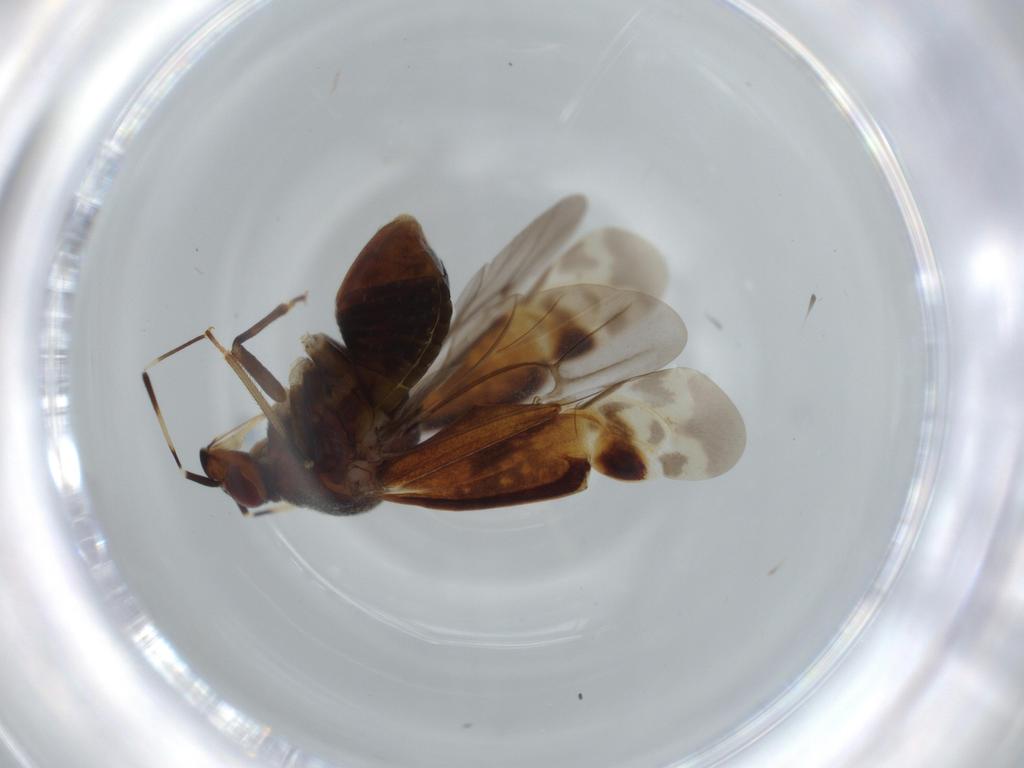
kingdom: Animalia
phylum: Arthropoda
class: Insecta
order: Hemiptera
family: Miridae
